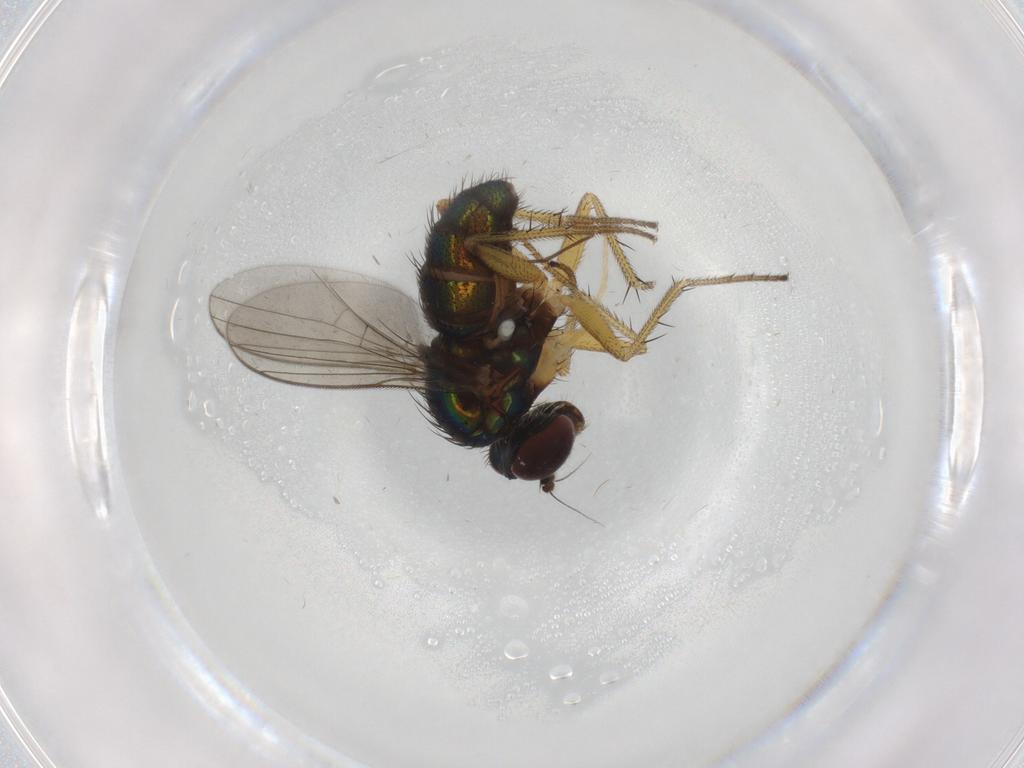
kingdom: Animalia
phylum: Arthropoda
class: Insecta
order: Diptera
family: Dolichopodidae
